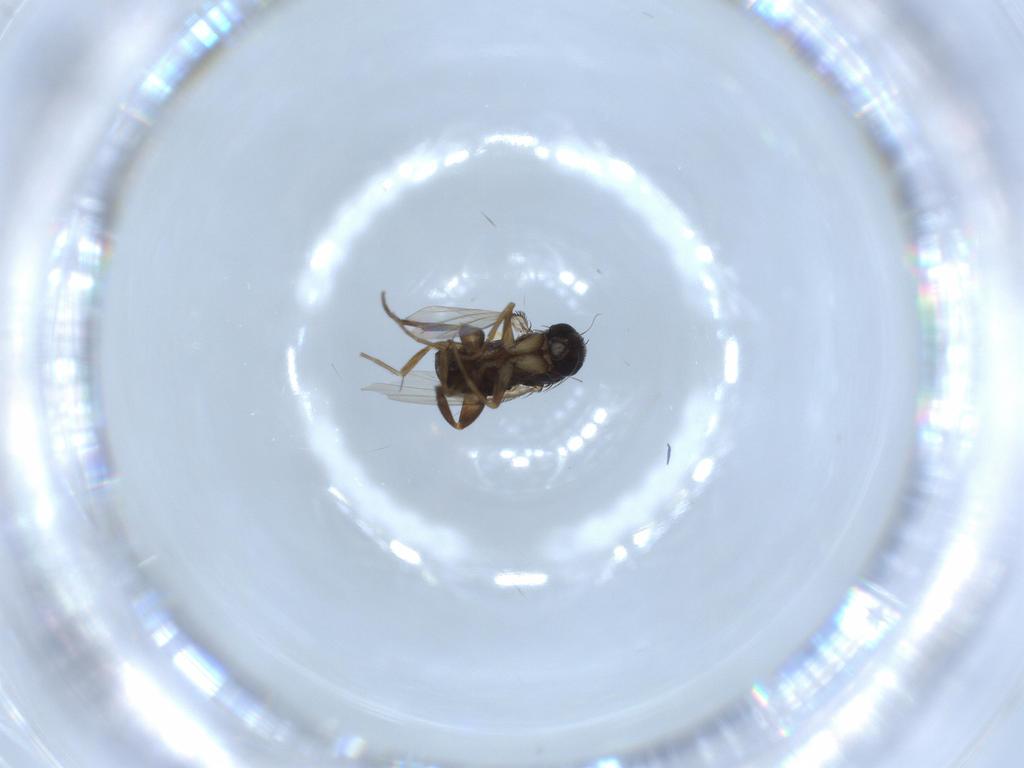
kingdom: Animalia
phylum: Arthropoda
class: Insecta
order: Diptera
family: Phoridae
